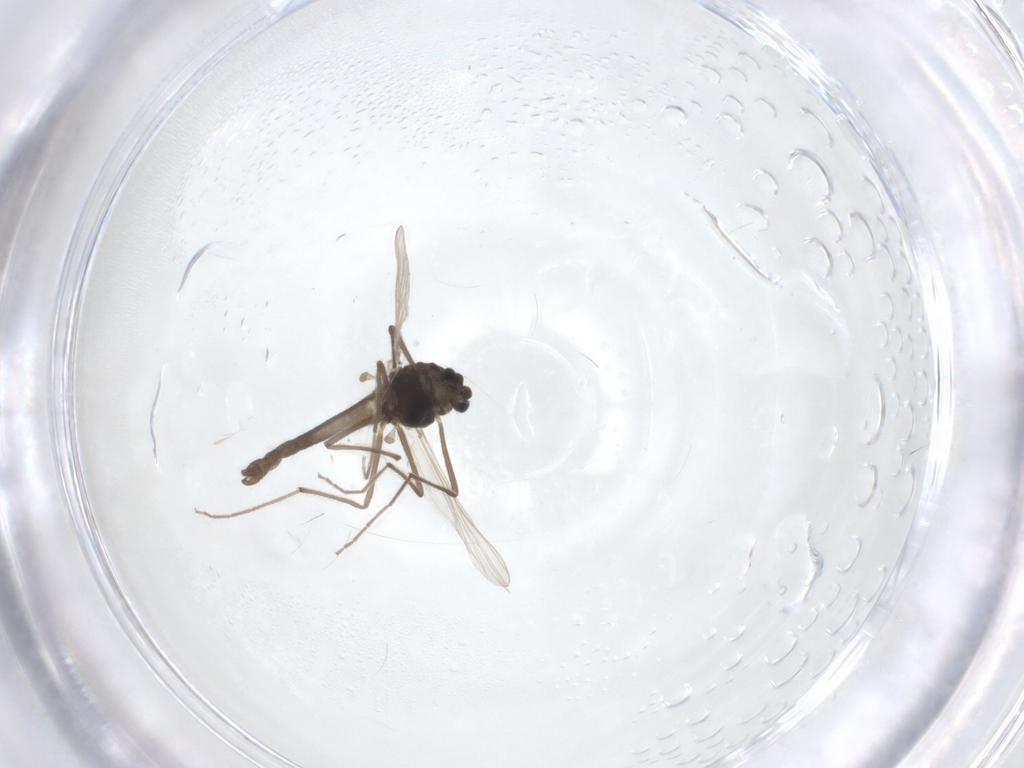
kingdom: Animalia
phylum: Arthropoda
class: Insecta
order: Diptera
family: Chironomidae
